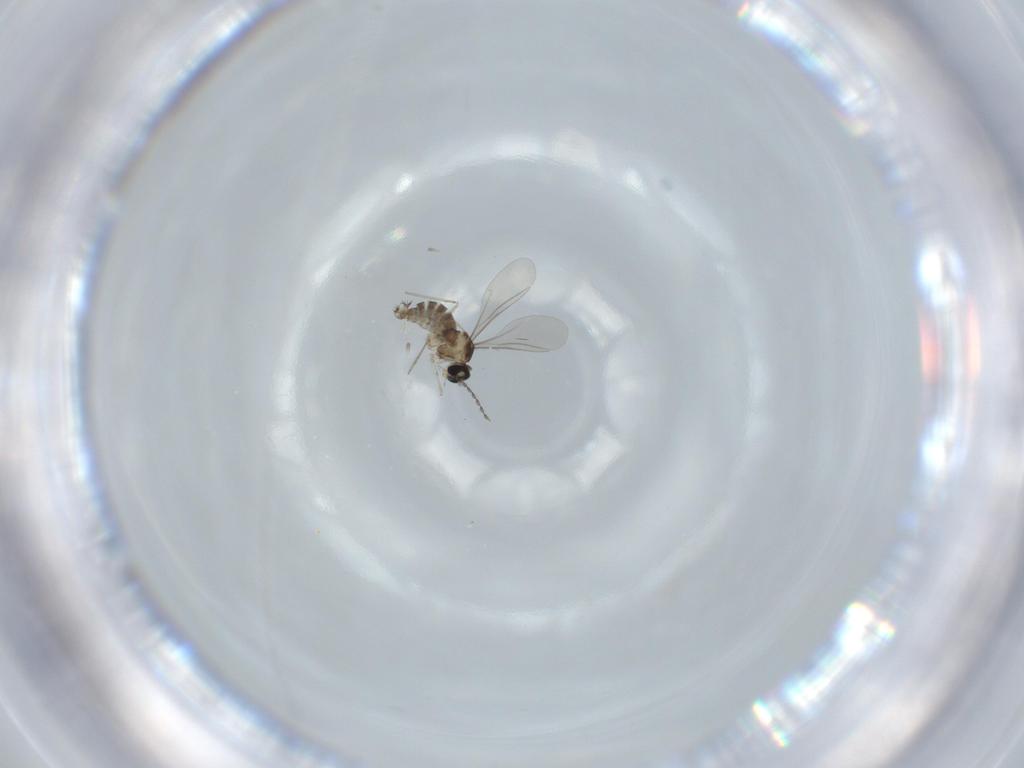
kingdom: Animalia
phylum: Arthropoda
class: Insecta
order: Diptera
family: Cecidomyiidae
